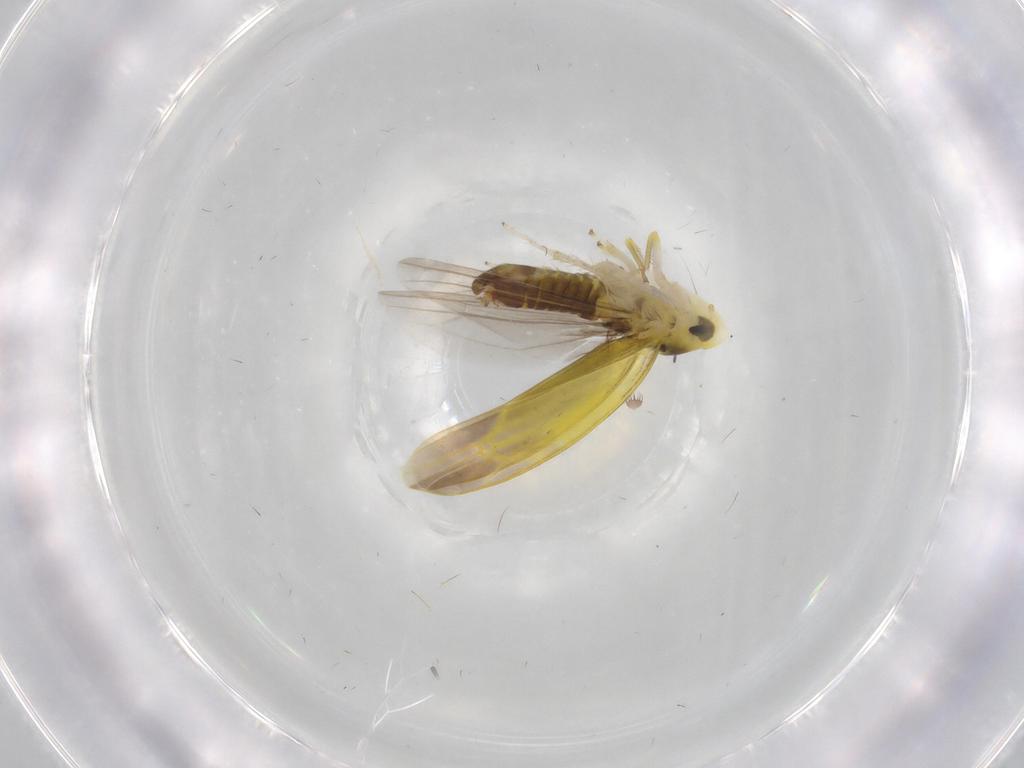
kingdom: Animalia
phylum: Arthropoda
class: Insecta
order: Hemiptera
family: Cicadellidae
